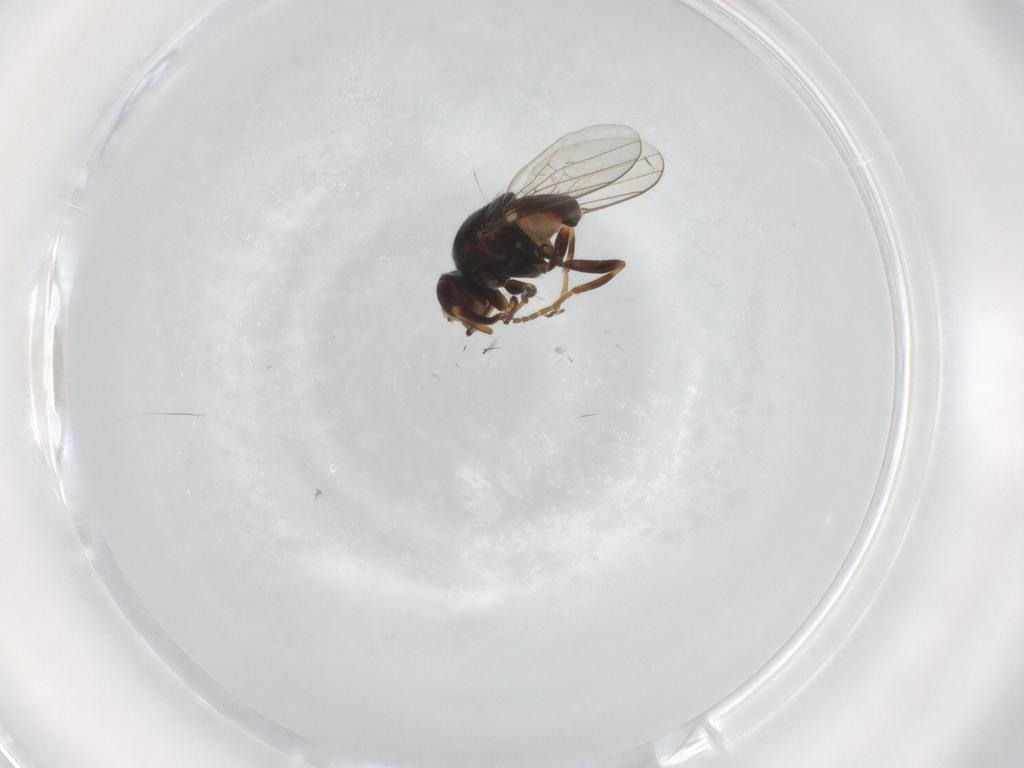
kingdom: Animalia
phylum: Arthropoda
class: Insecta
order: Diptera
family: Chloropidae
